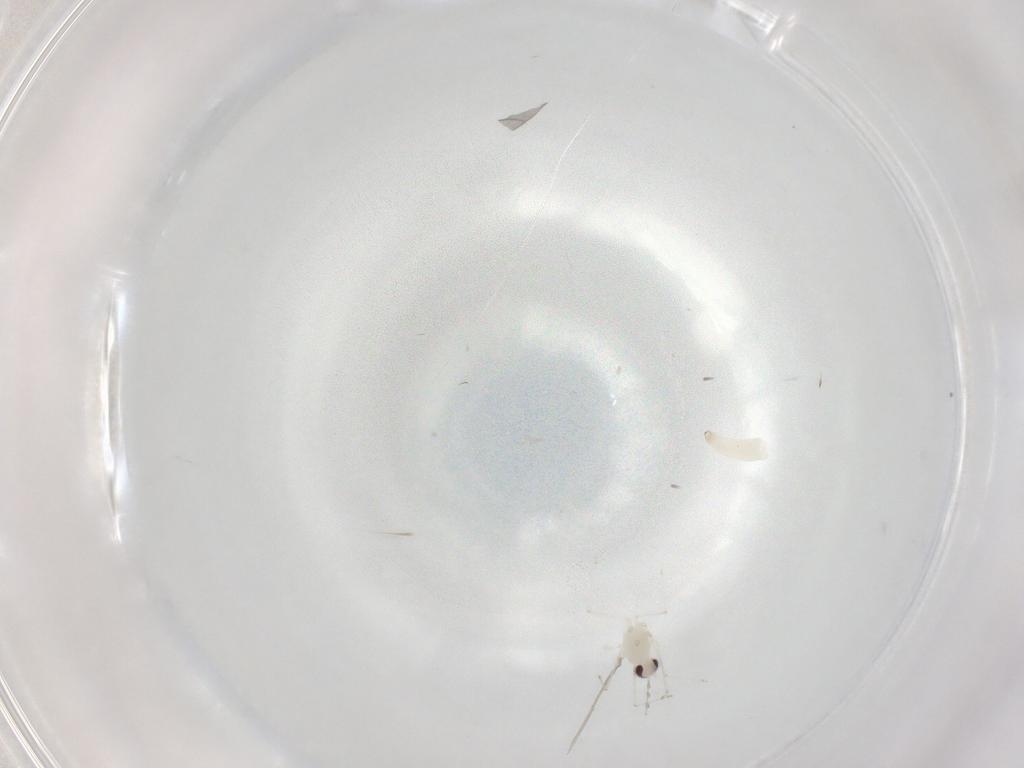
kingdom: Animalia
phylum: Arthropoda
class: Insecta
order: Diptera
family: Cecidomyiidae
